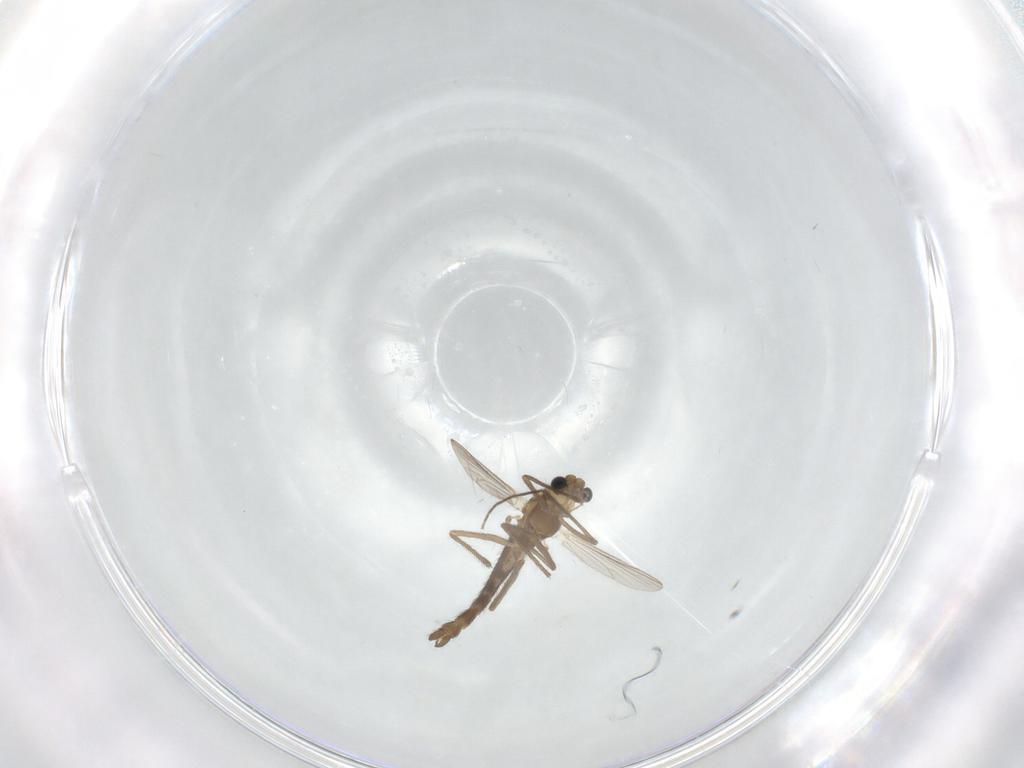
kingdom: Animalia
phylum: Arthropoda
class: Insecta
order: Diptera
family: Chironomidae
